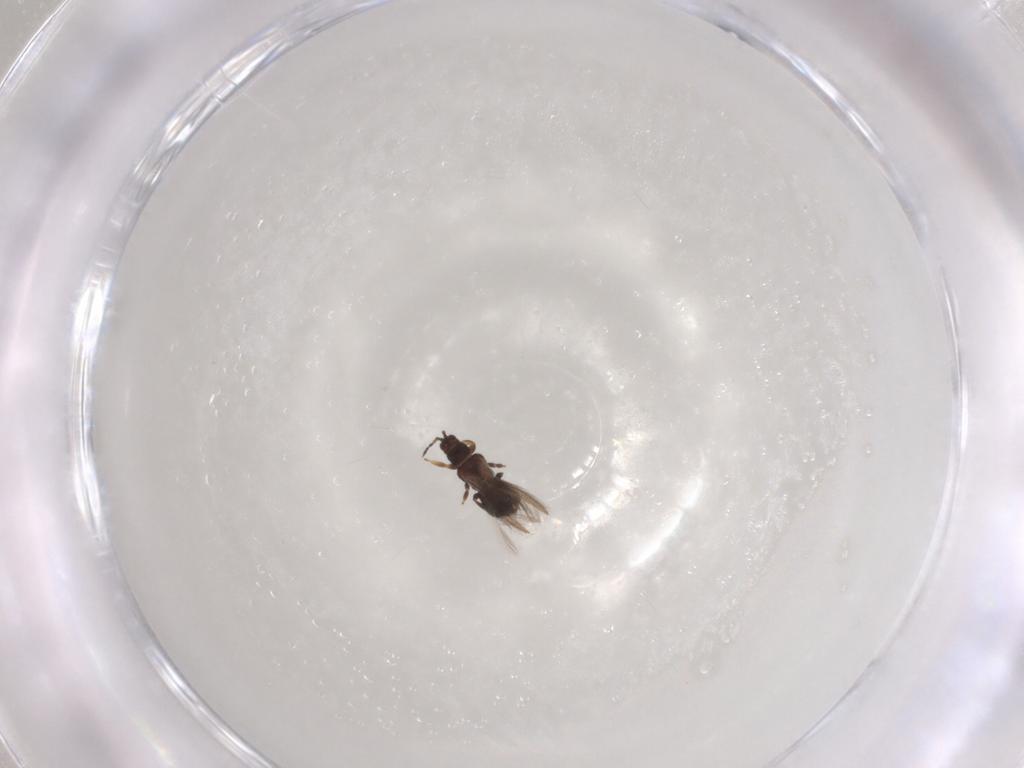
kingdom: Animalia
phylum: Arthropoda
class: Insecta
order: Thysanoptera
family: Thripidae
